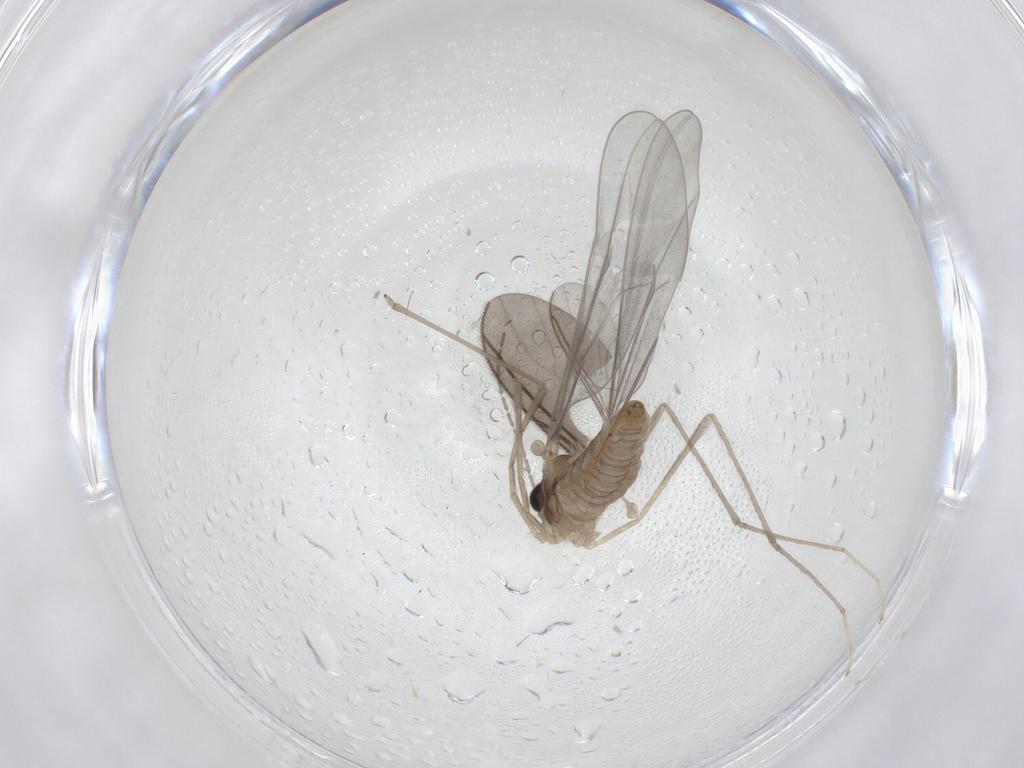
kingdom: Animalia
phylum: Arthropoda
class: Insecta
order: Diptera
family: Cecidomyiidae
